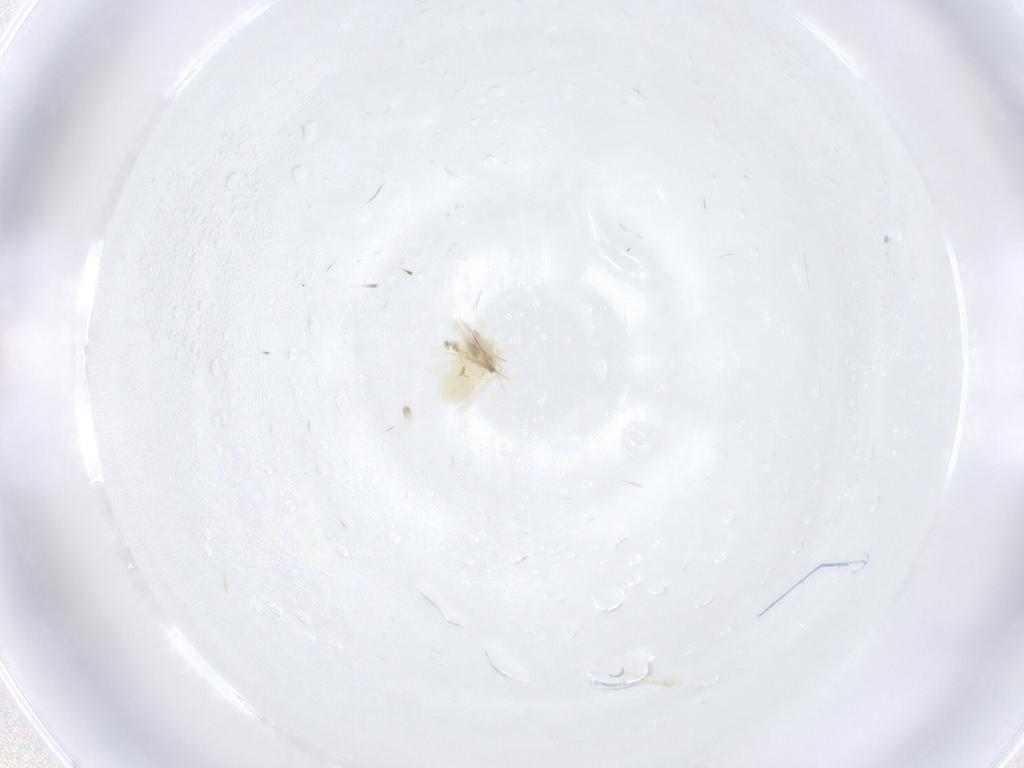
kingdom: Animalia
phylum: Arthropoda
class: Arachnida
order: Trombidiformes
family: Anystidae
